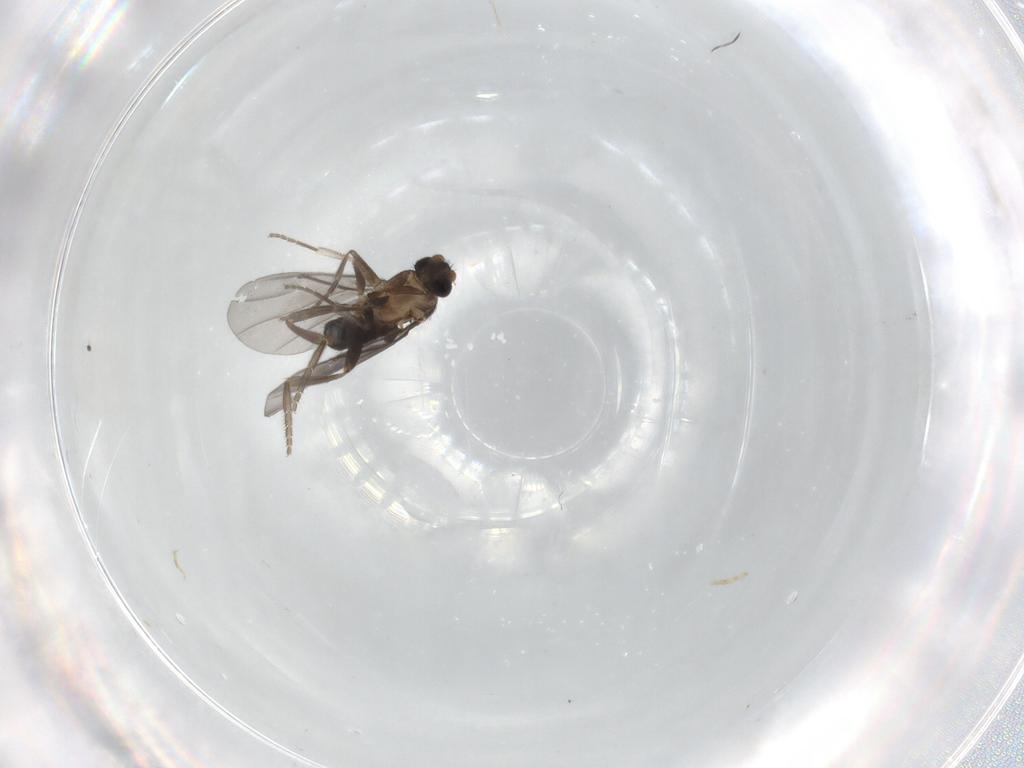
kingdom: Animalia
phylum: Arthropoda
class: Insecta
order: Diptera
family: Phoridae
